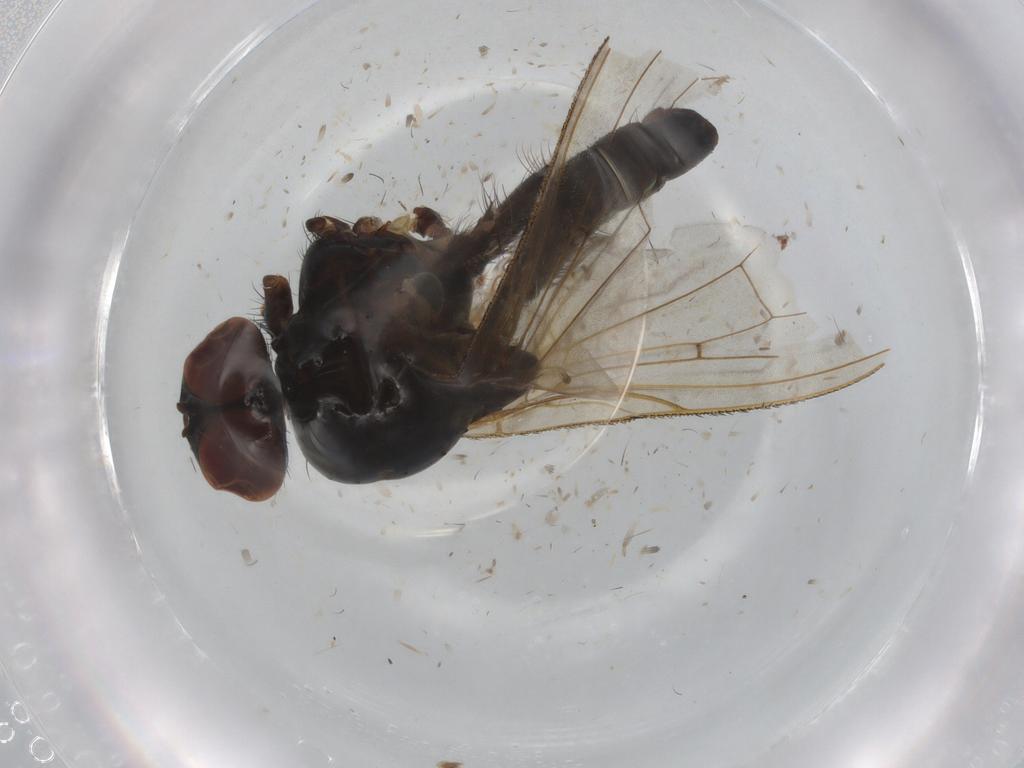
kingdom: Animalia
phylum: Arthropoda
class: Insecta
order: Diptera
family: Anthomyiidae
